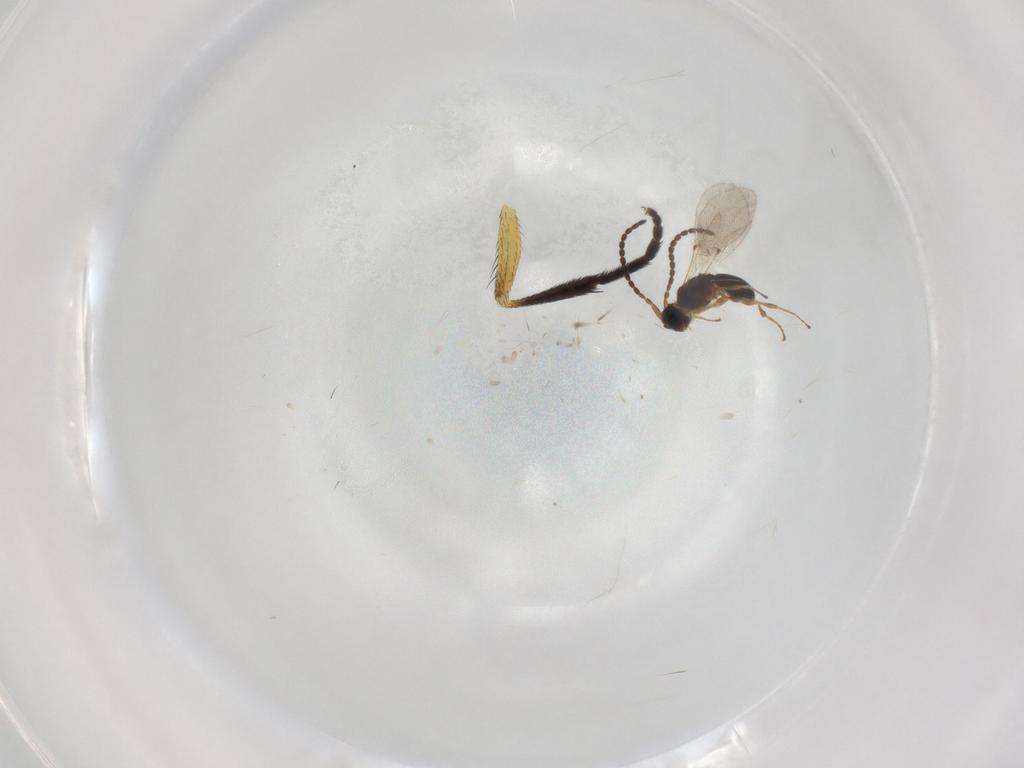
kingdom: Animalia
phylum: Arthropoda
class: Insecta
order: Hymenoptera
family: Diapriidae
